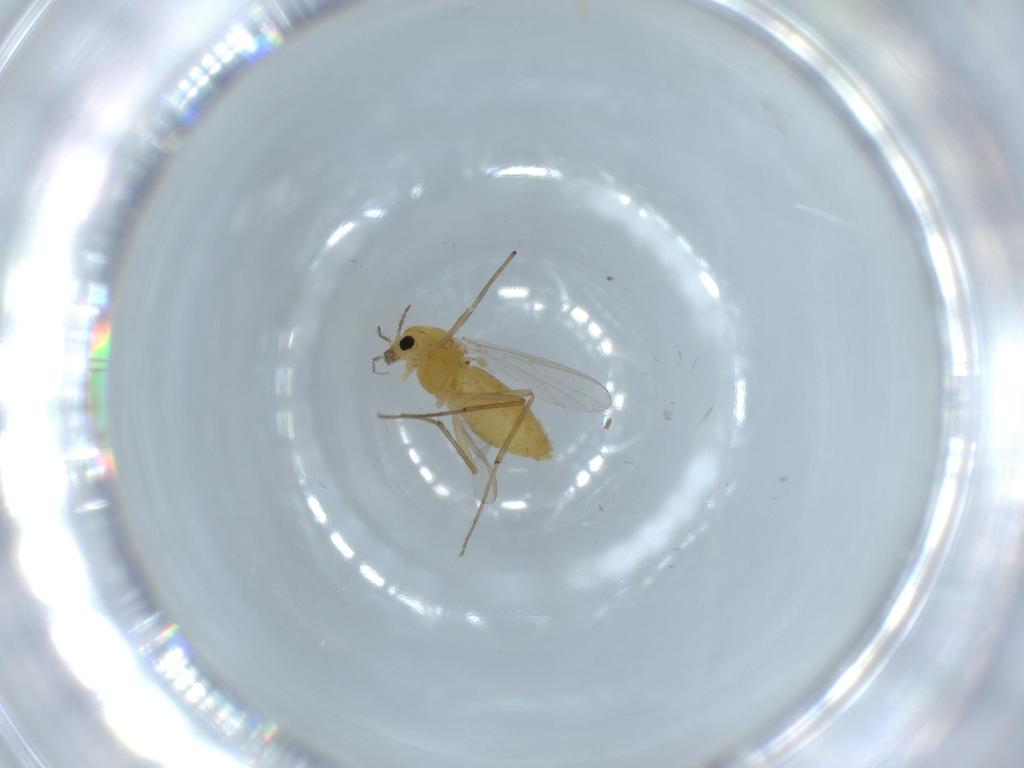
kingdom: Animalia
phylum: Arthropoda
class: Insecta
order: Diptera
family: Chironomidae
